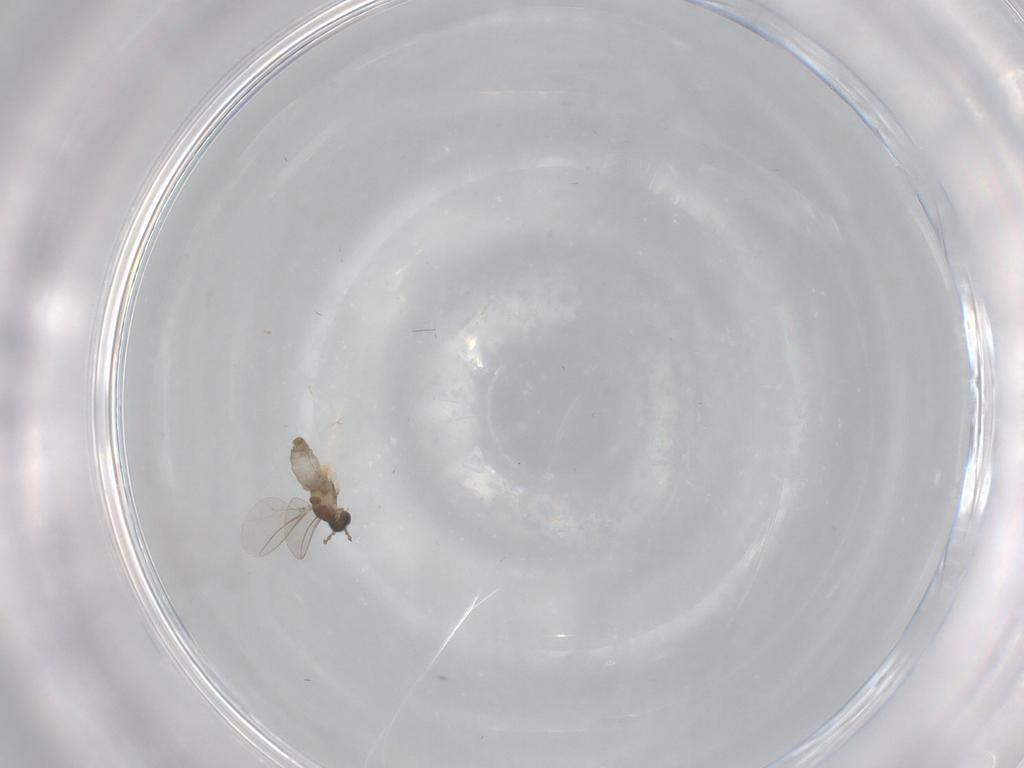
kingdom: Animalia
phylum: Arthropoda
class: Insecta
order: Diptera
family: Cecidomyiidae
